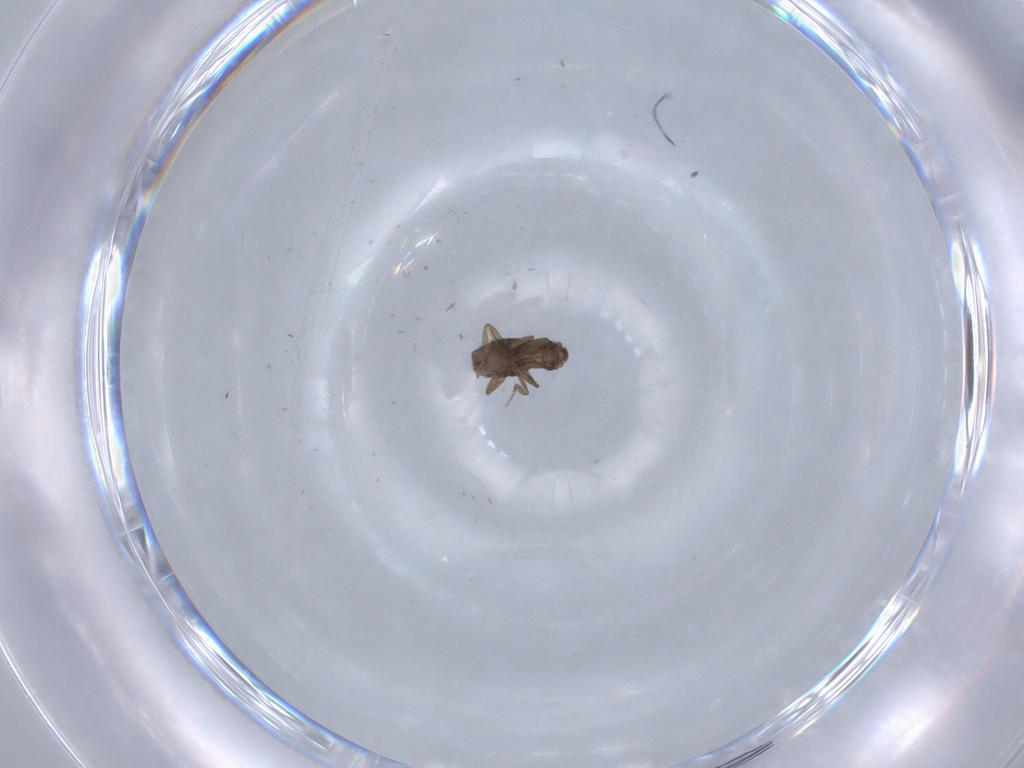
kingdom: Animalia
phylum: Arthropoda
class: Insecta
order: Diptera
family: Phoridae
